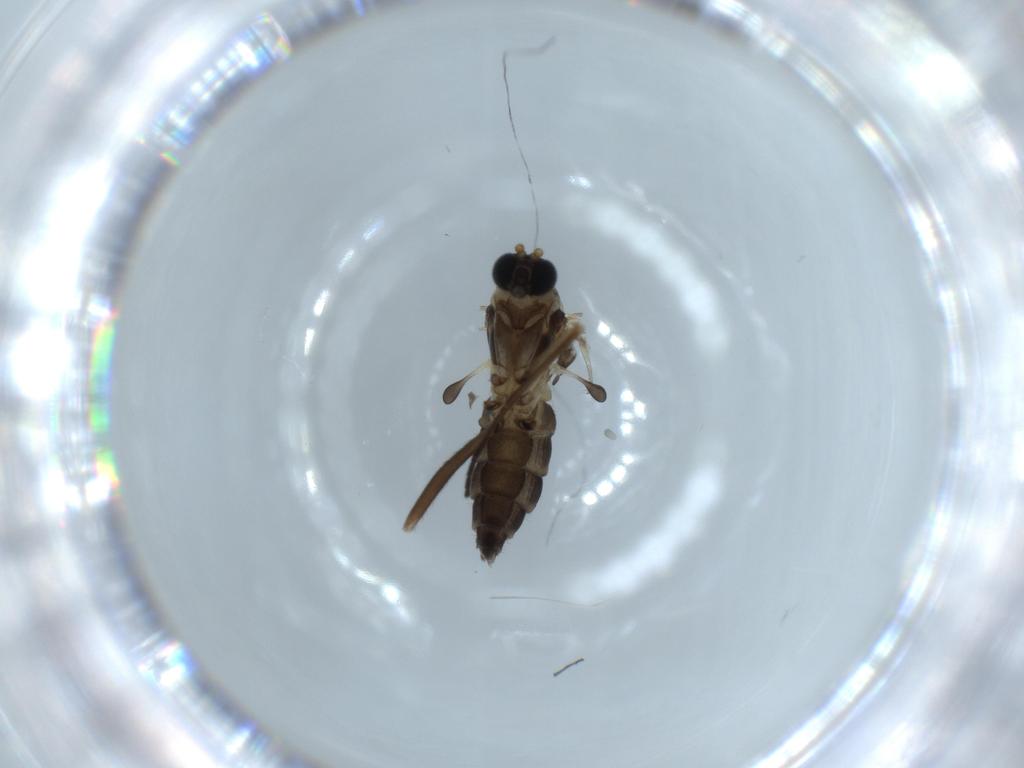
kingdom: Animalia
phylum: Arthropoda
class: Insecta
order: Diptera
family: Sciaridae
